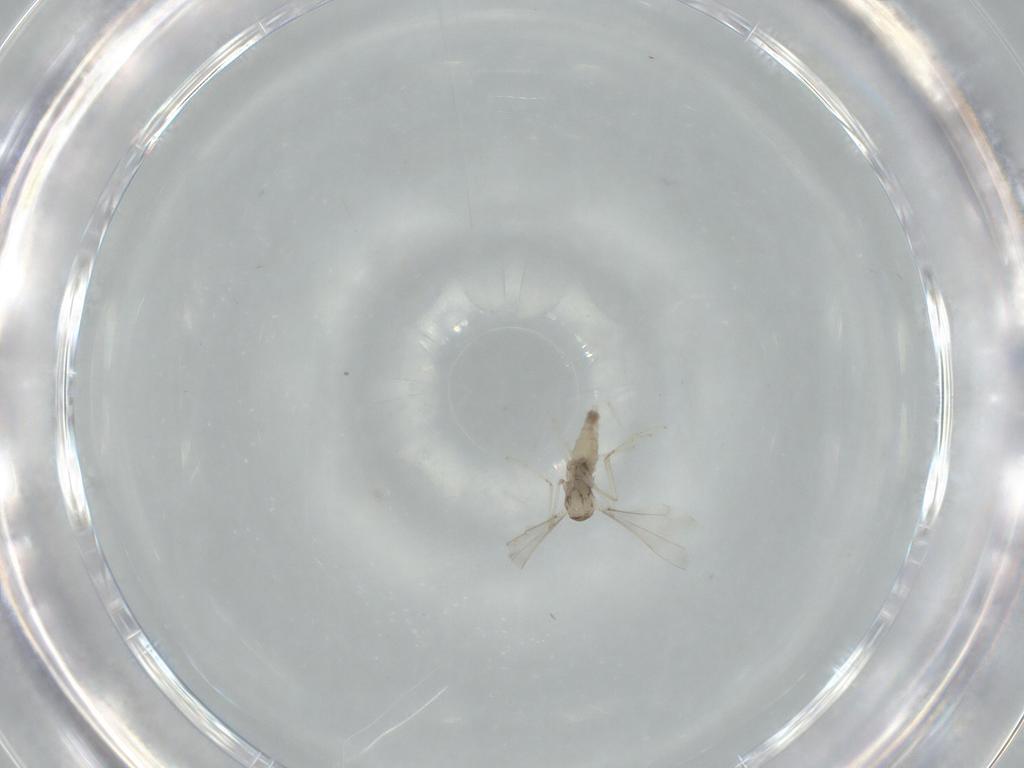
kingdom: Animalia
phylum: Arthropoda
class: Insecta
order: Diptera
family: Cecidomyiidae
